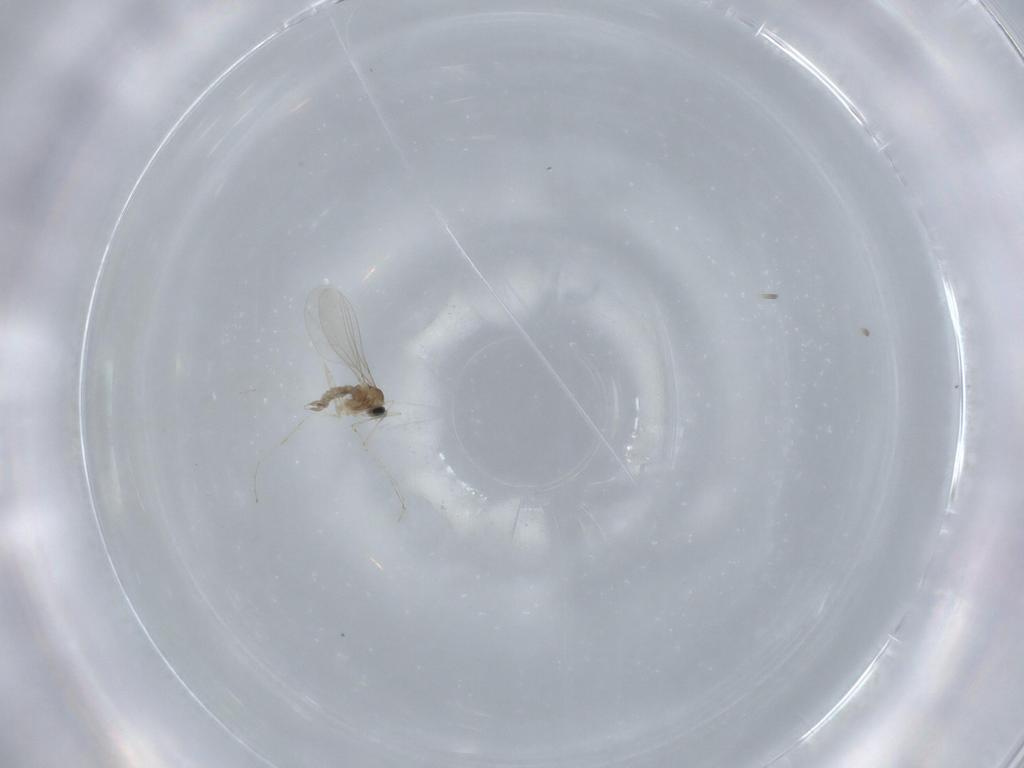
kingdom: Animalia
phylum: Arthropoda
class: Insecta
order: Diptera
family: Cecidomyiidae
